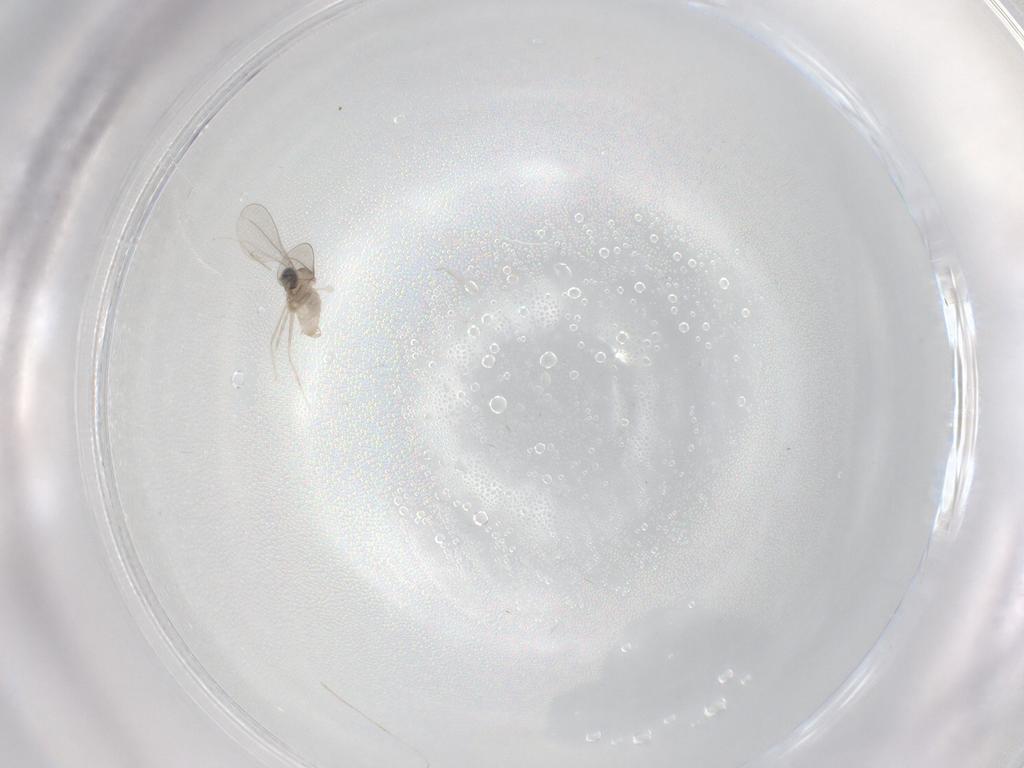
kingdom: Animalia
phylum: Arthropoda
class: Insecta
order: Diptera
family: Cecidomyiidae
